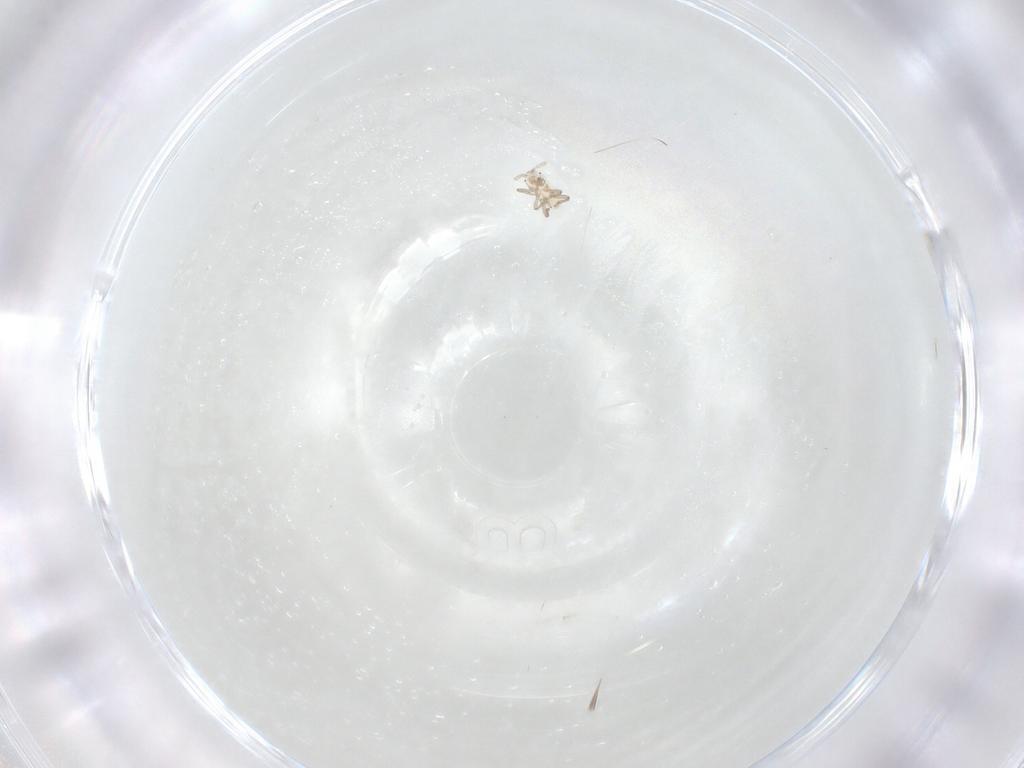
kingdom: Animalia
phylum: Arthropoda
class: Insecta
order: Hemiptera
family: Aphididae
